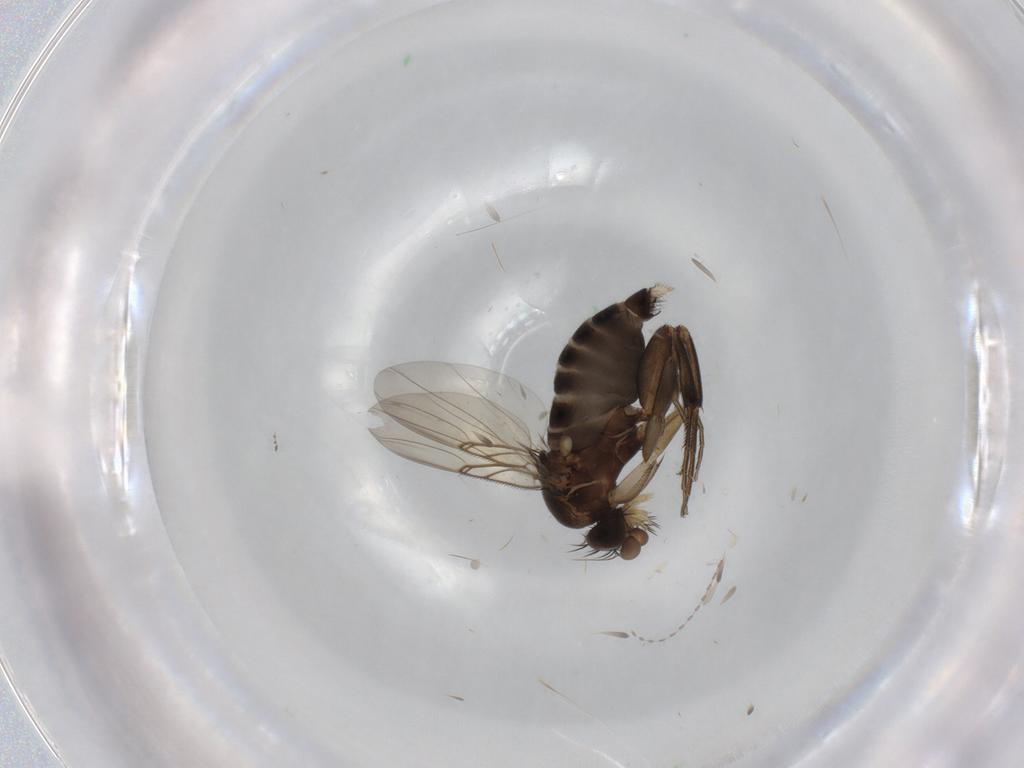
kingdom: Animalia
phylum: Arthropoda
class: Insecta
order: Diptera
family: Phoridae
